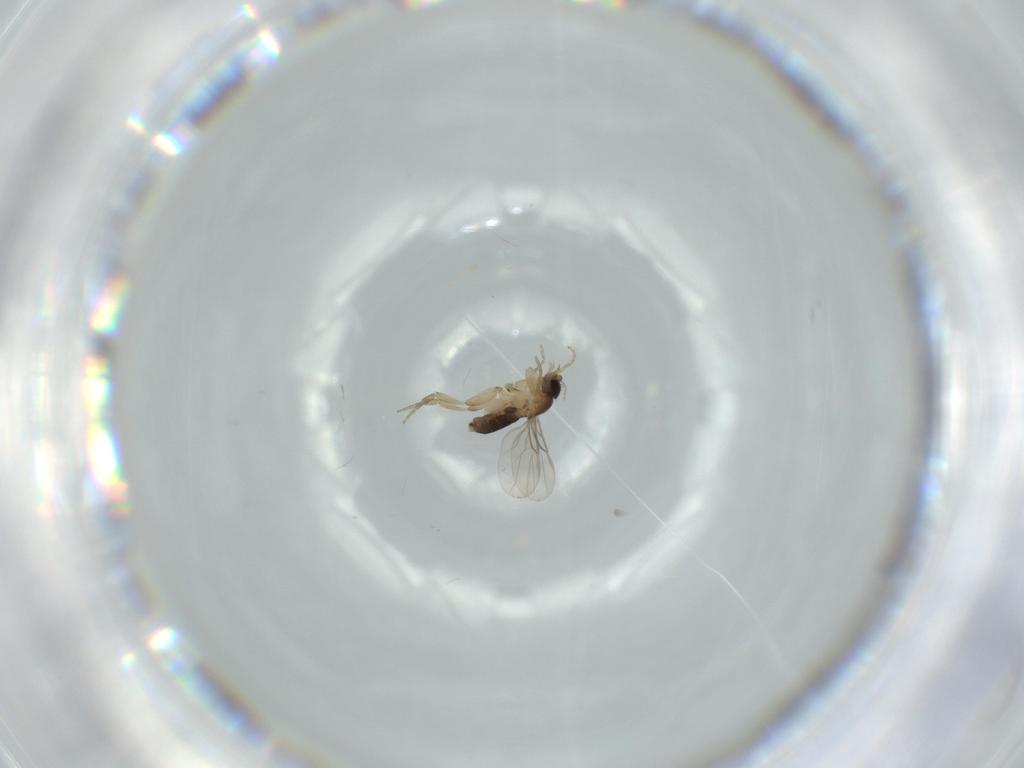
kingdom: Animalia
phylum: Arthropoda
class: Insecta
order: Diptera
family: Phoridae
